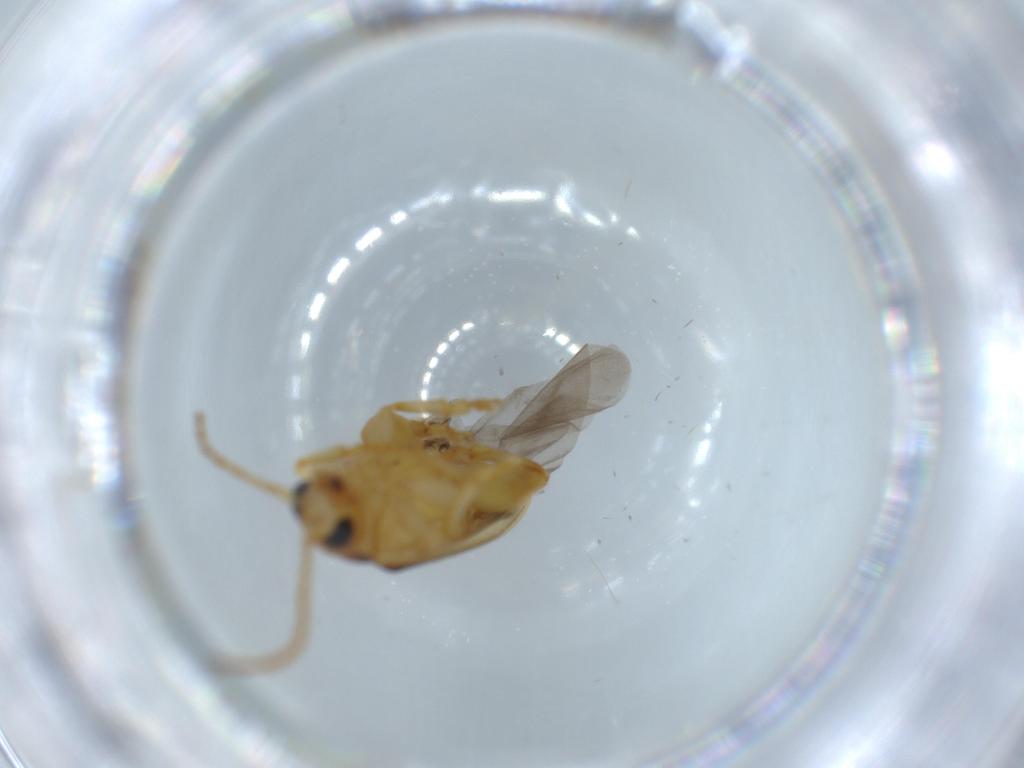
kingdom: Animalia
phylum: Arthropoda
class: Insecta
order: Coleoptera
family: Chrysomelidae
